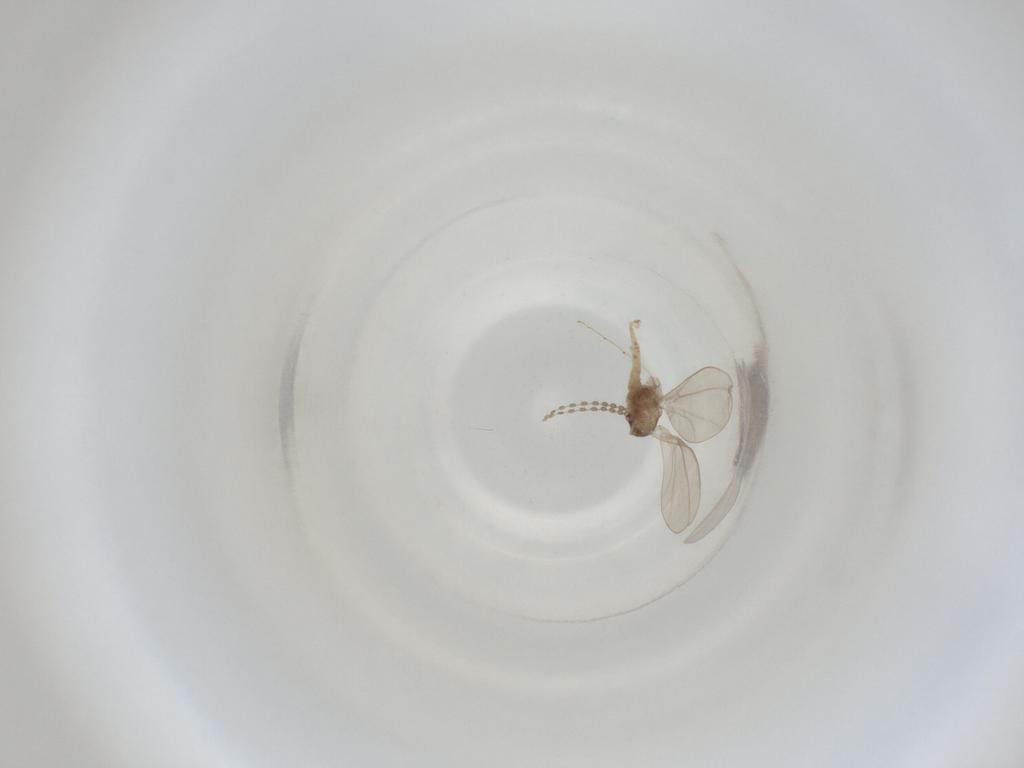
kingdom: Animalia
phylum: Arthropoda
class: Insecta
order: Diptera
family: Cecidomyiidae
